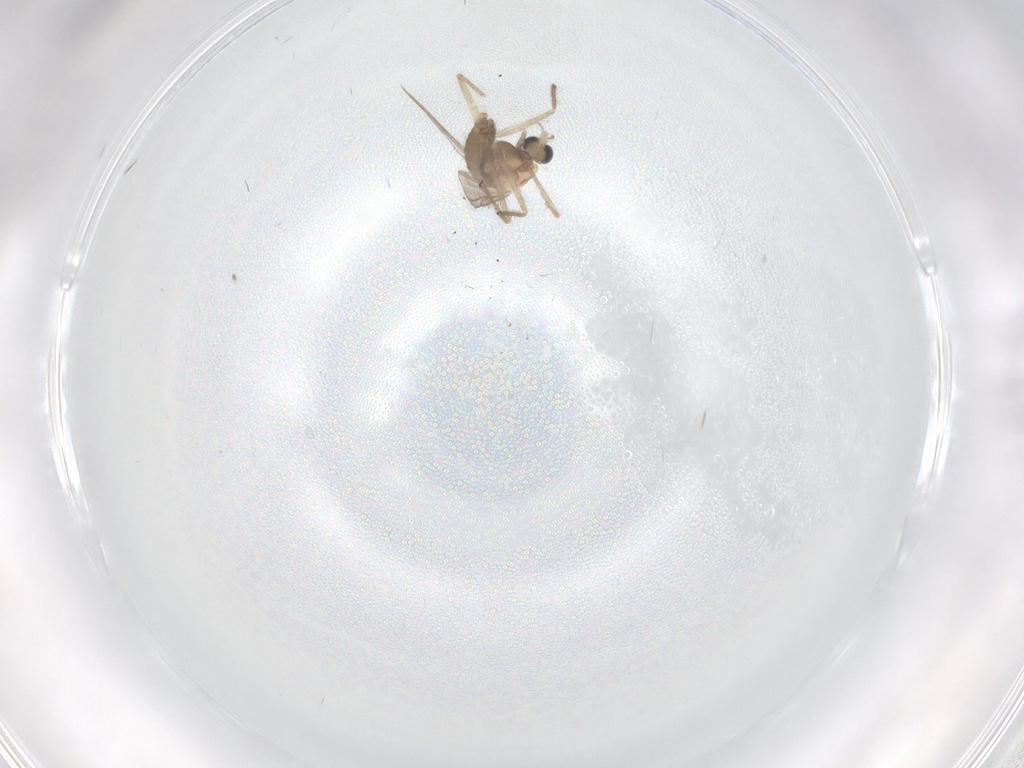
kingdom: Animalia
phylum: Arthropoda
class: Insecta
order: Diptera
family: Chironomidae
